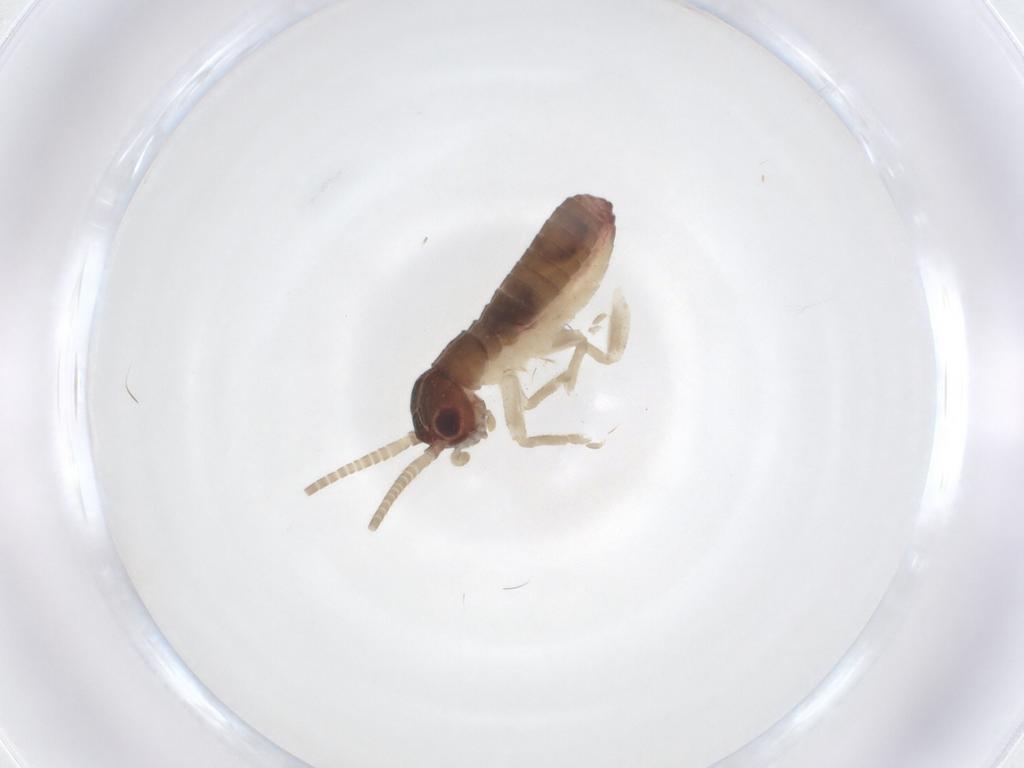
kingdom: Animalia
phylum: Arthropoda
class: Insecta
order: Orthoptera
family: Gryllidae
